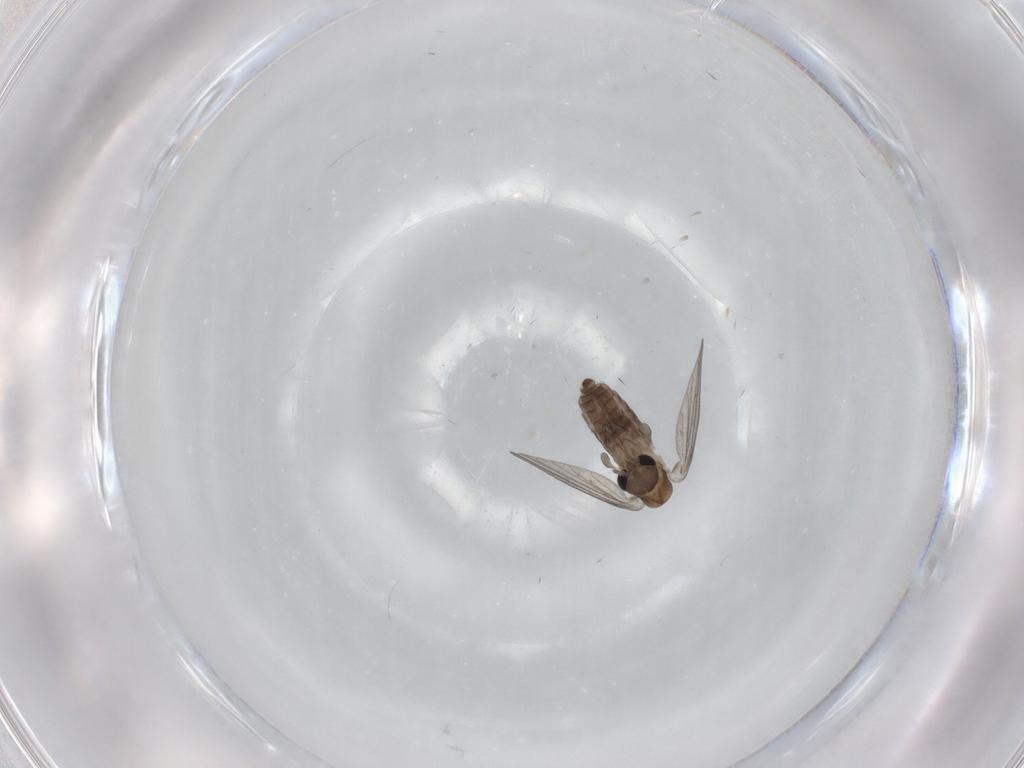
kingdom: Animalia
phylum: Arthropoda
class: Insecta
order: Diptera
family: Psychodidae
